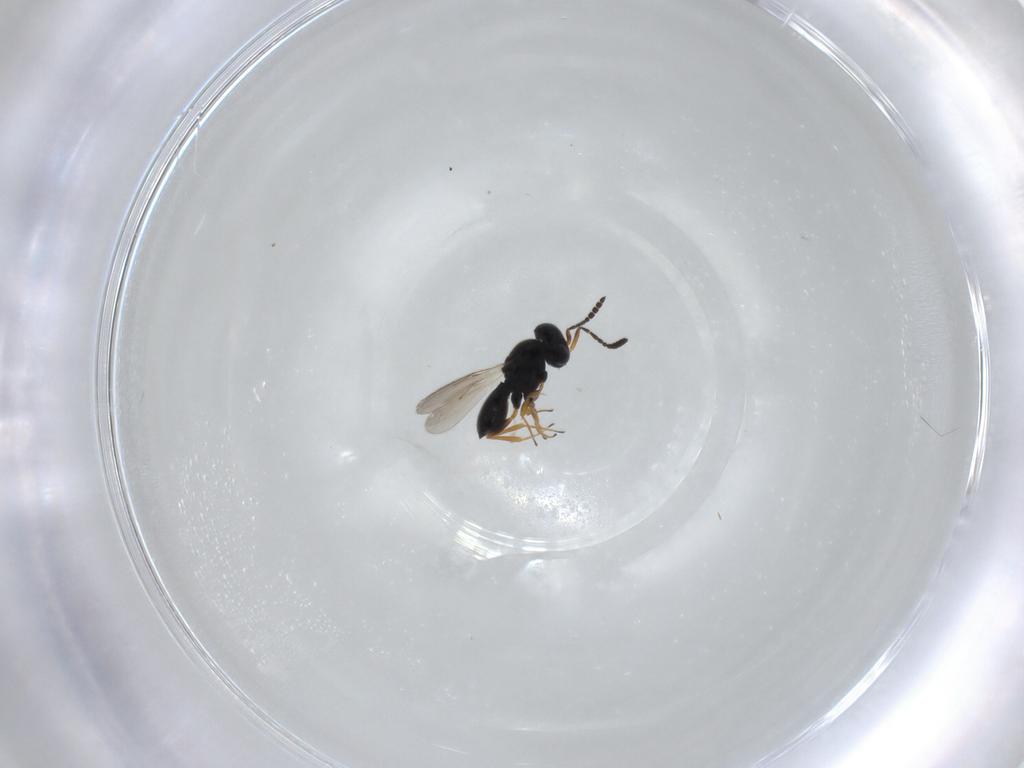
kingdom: Animalia
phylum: Arthropoda
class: Insecta
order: Hymenoptera
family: Scelionidae
